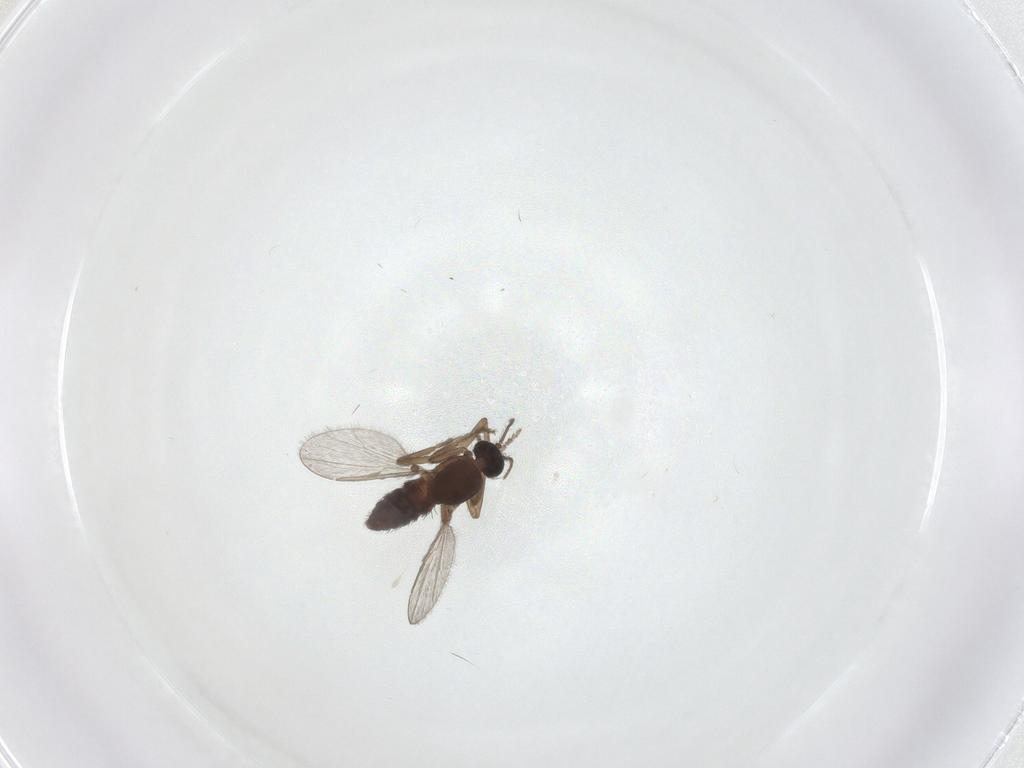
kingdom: Animalia
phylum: Arthropoda
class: Insecta
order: Diptera
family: Ceratopogonidae
